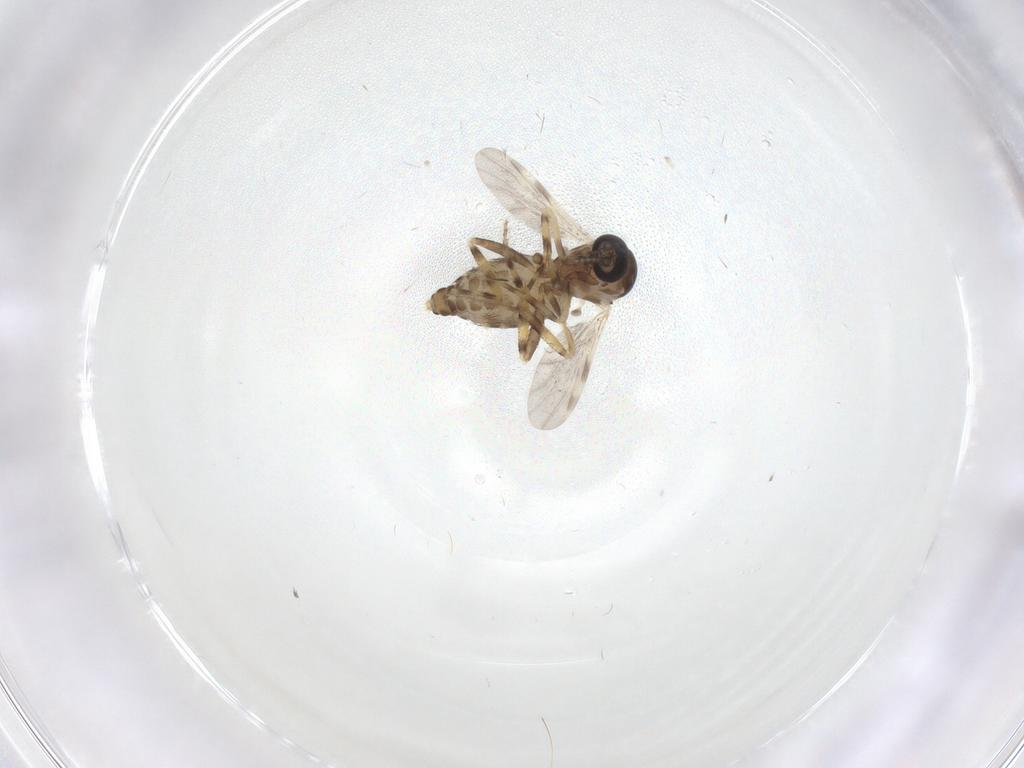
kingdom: Animalia
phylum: Arthropoda
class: Insecta
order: Diptera
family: Ceratopogonidae
